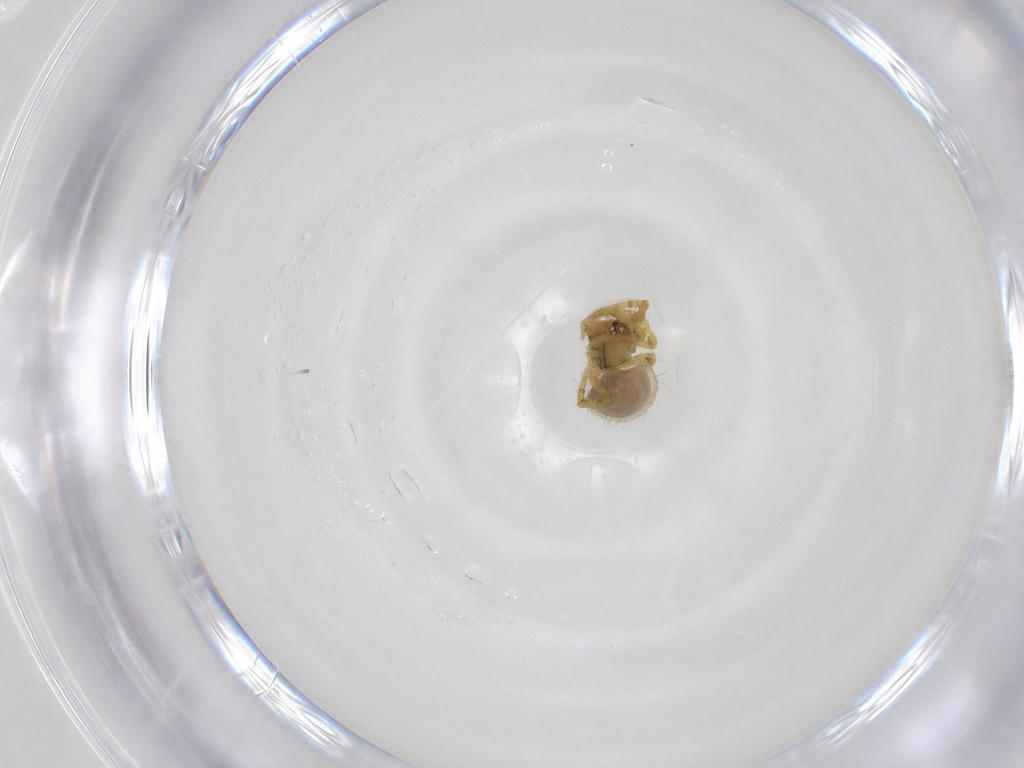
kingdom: Animalia
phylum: Arthropoda
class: Arachnida
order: Araneae
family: Theridiidae
